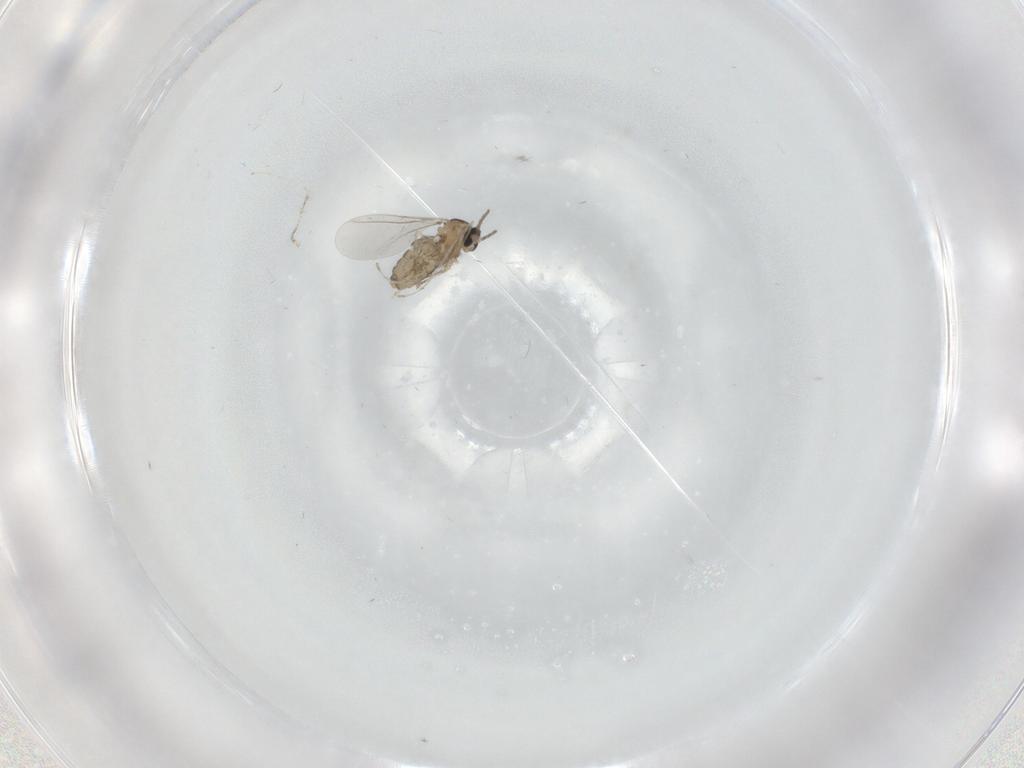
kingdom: Animalia
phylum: Arthropoda
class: Insecta
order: Diptera
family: Cecidomyiidae
